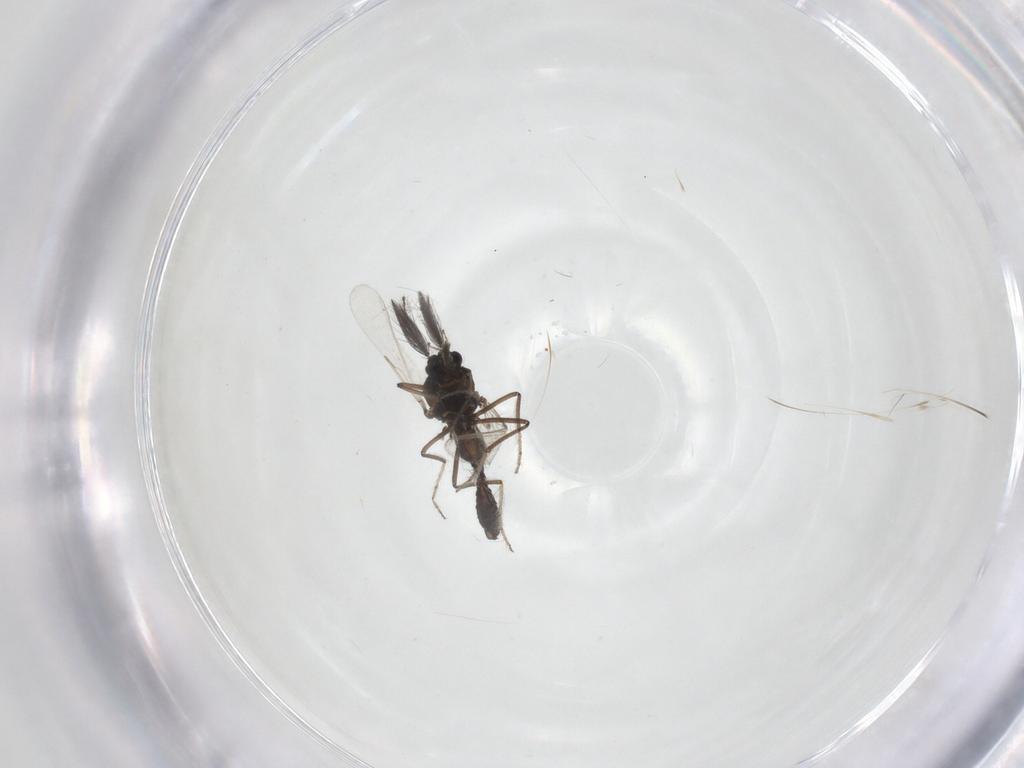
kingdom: Animalia
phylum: Arthropoda
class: Insecta
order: Diptera
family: Ceratopogonidae
